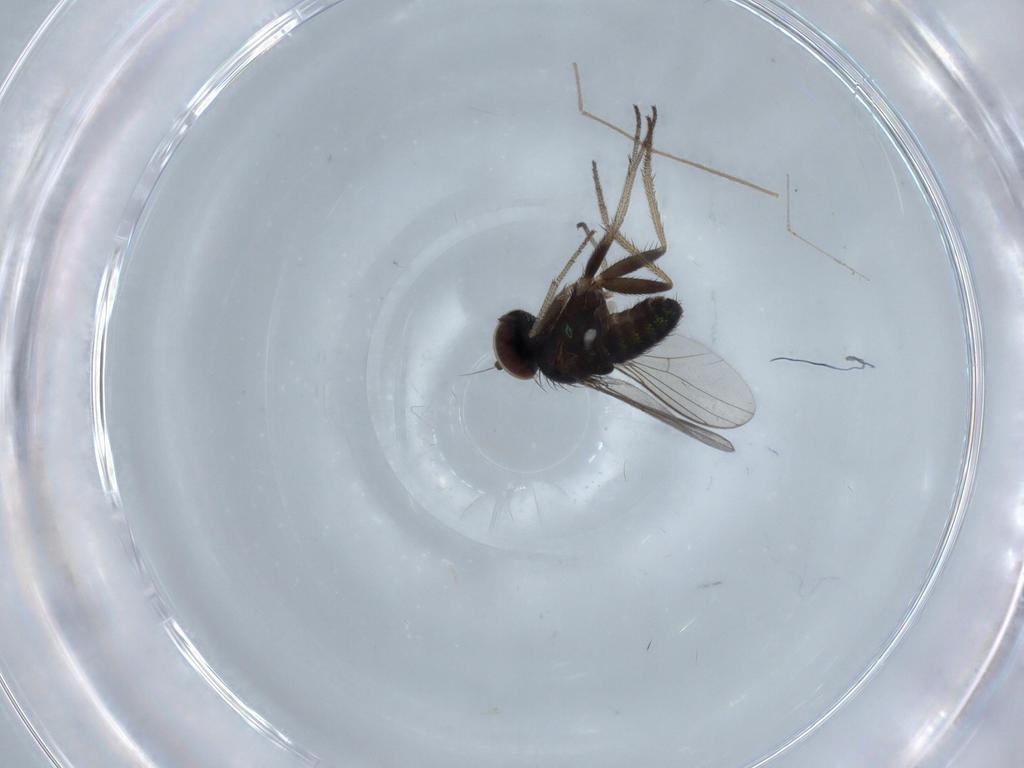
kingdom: Animalia
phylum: Arthropoda
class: Insecta
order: Diptera
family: Dolichopodidae
